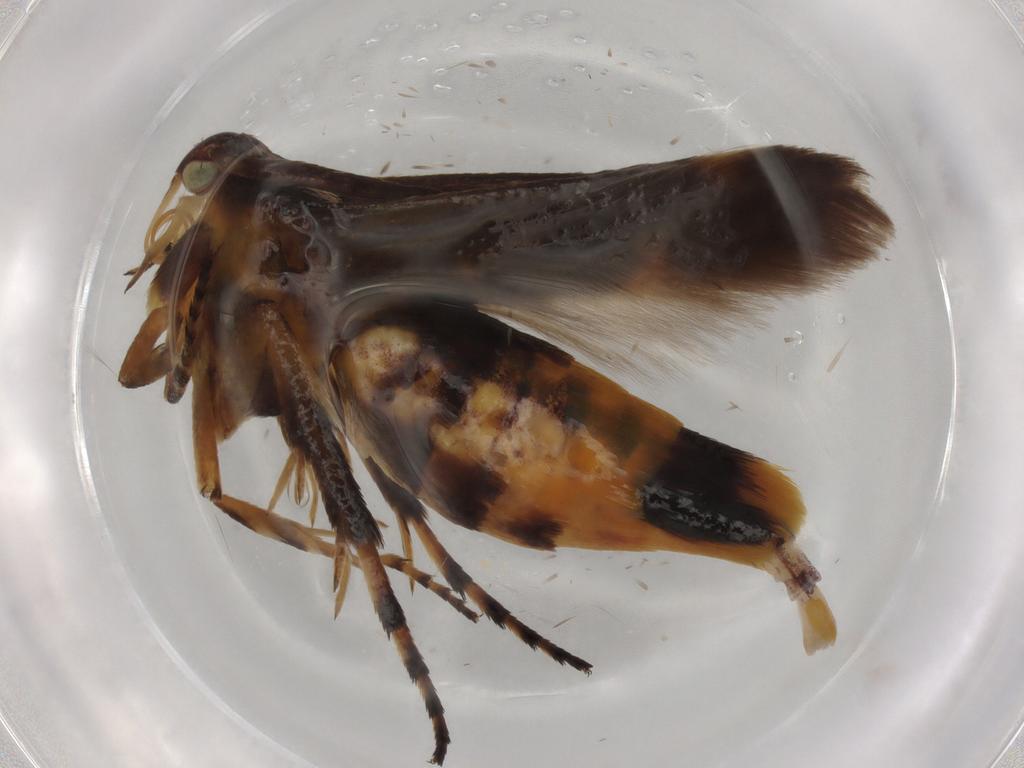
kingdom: Animalia
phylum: Arthropoda
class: Insecta
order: Lepidoptera
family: Scythrididae
